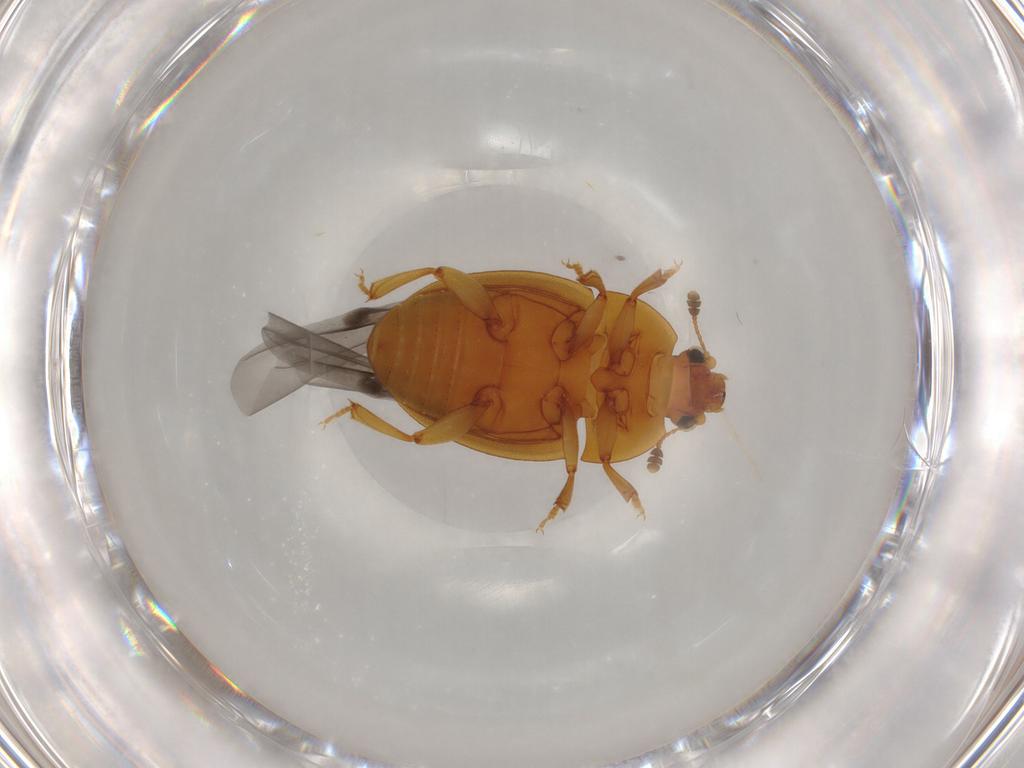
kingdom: Animalia
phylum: Arthropoda
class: Insecta
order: Coleoptera
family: Nitidulidae
